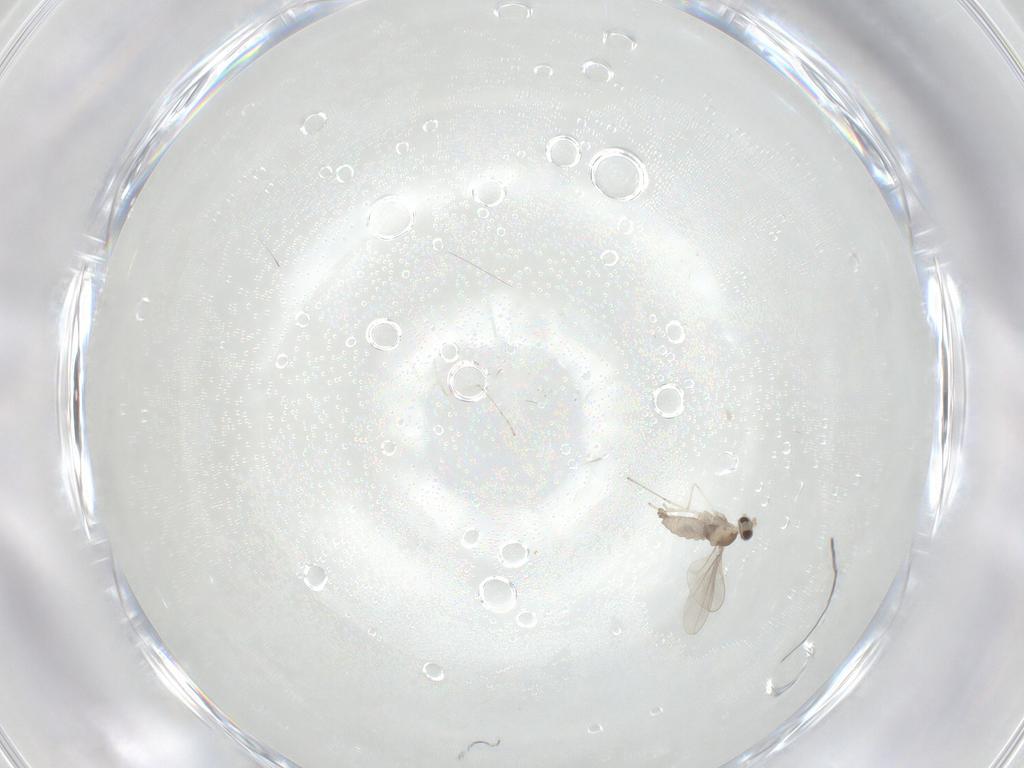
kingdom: Animalia
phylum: Arthropoda
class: Insecta
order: Diptera
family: Cecidomyiidae
